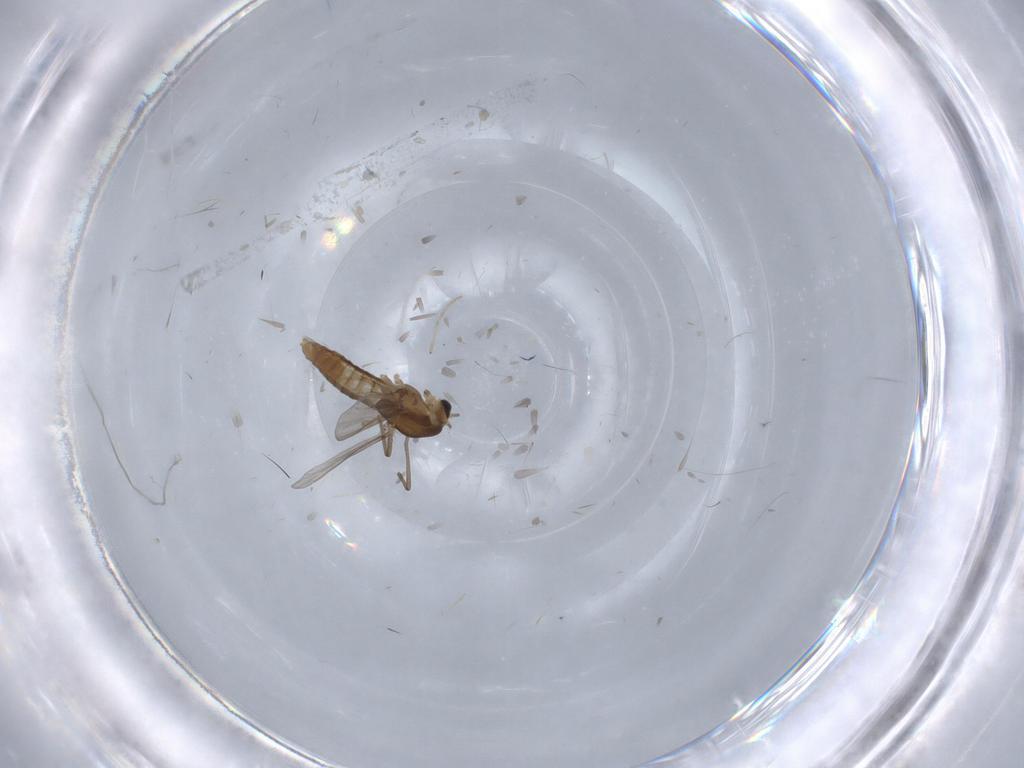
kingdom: Animalia
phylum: Arthropoda
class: Insecta
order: Diptera
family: Chironomidae
